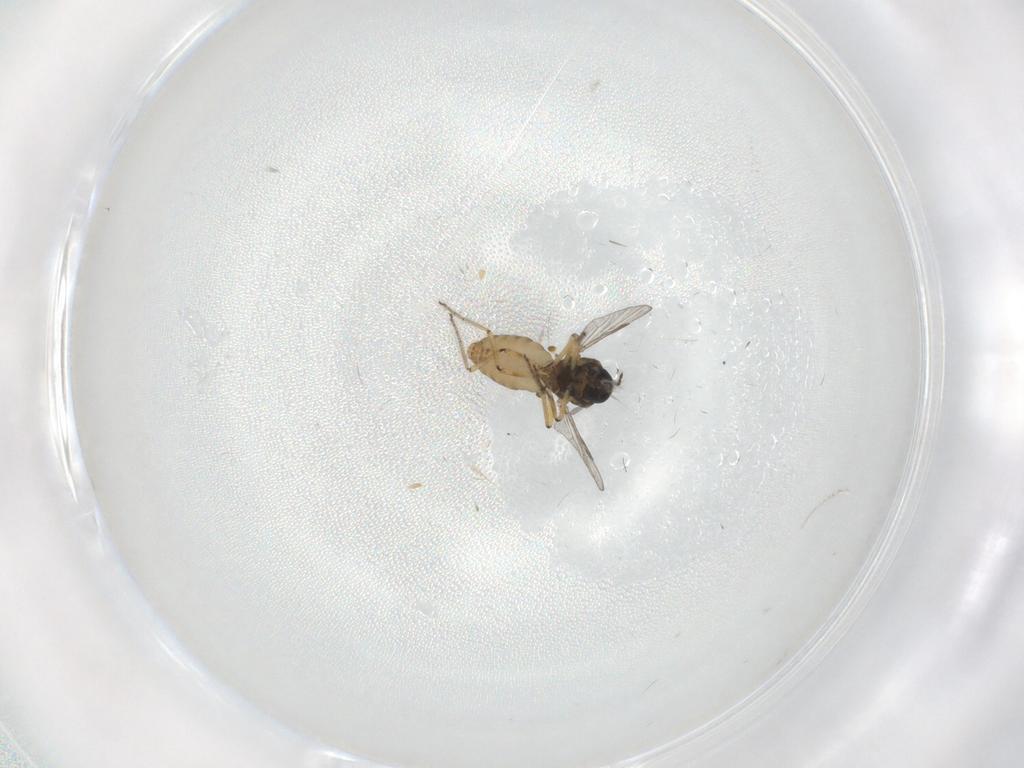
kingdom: Animalia
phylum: Arthropoda
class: Insecta
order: Diptera
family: Ceratopogonidae
